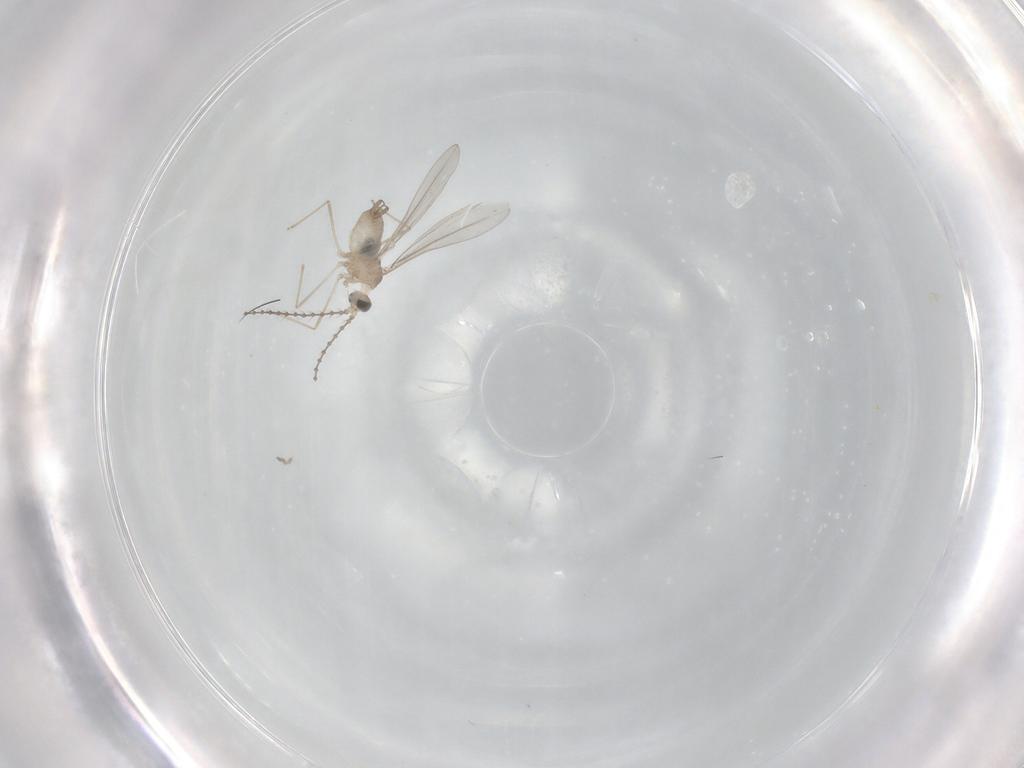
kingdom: Animalia
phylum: Arthropoda
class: Insecta
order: Diptera
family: Cecidomyiidae
